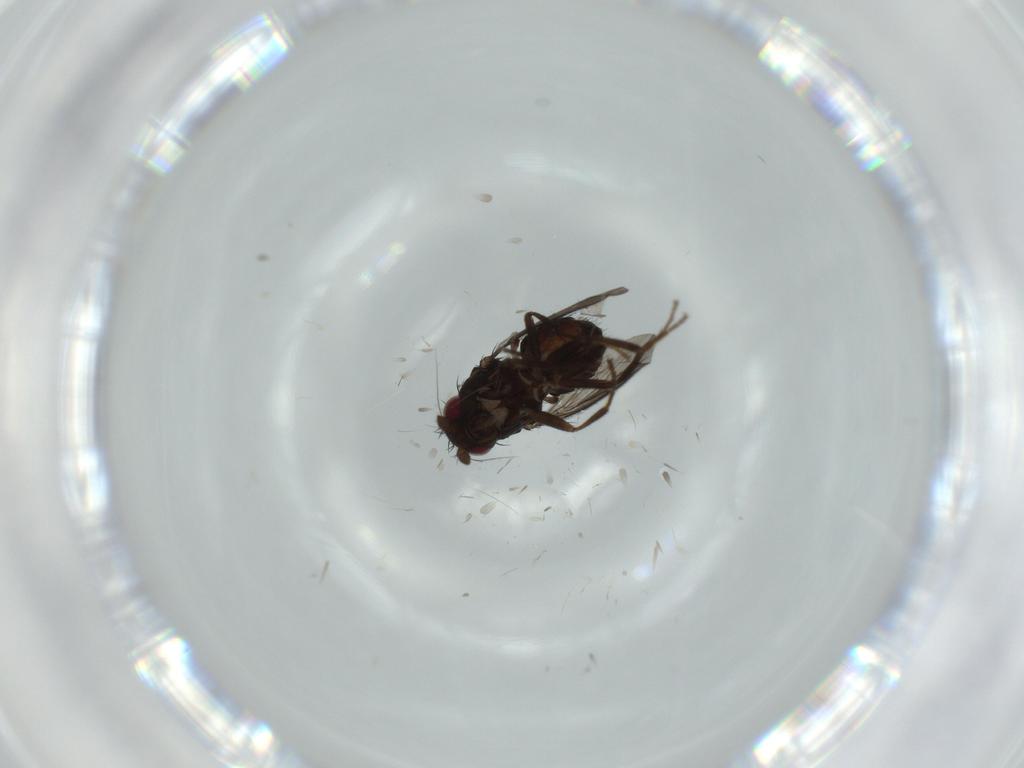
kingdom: Animalia
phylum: Arthropoda
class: Insecta
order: Diptera
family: Sphaeroceridae
